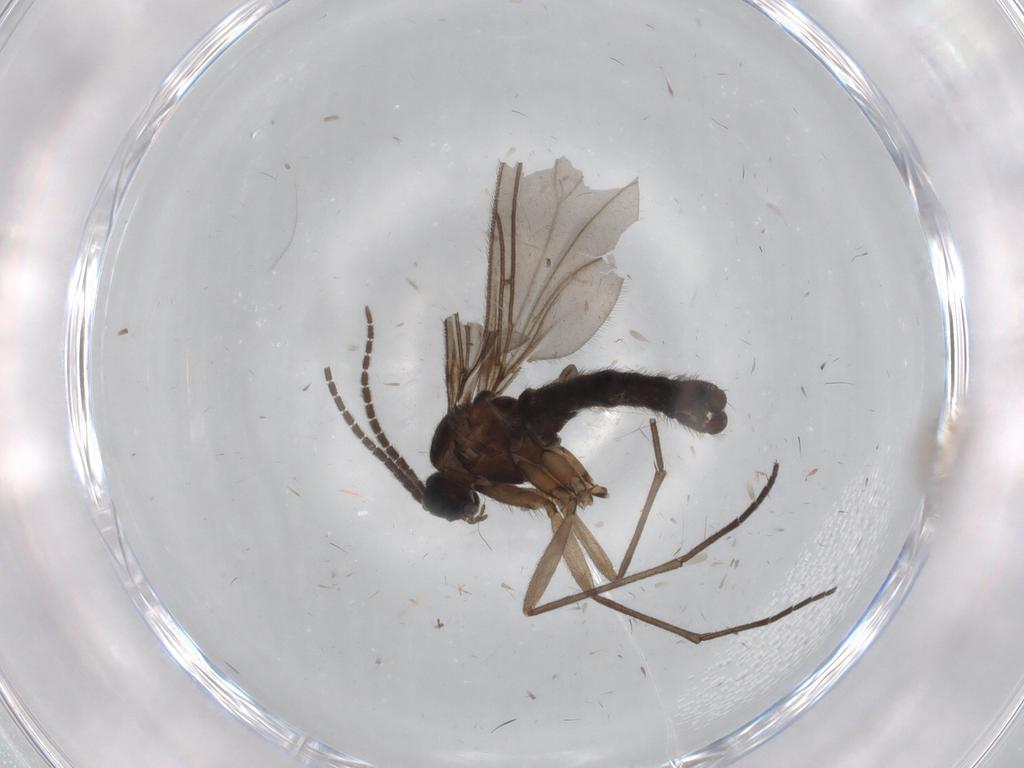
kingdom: Animalia
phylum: Arthropoda
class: Insecta
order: Diptera
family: Sciaridae
